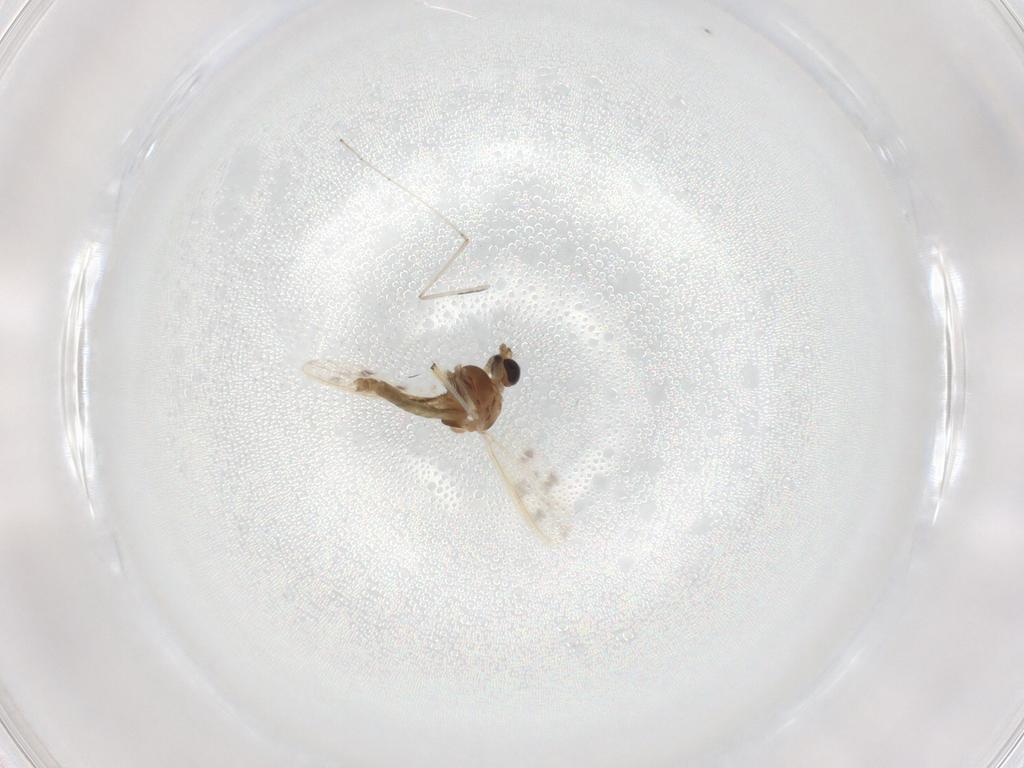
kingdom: Animalia
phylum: Arthropoda
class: Insecta
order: Diptera
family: Chironomidae
